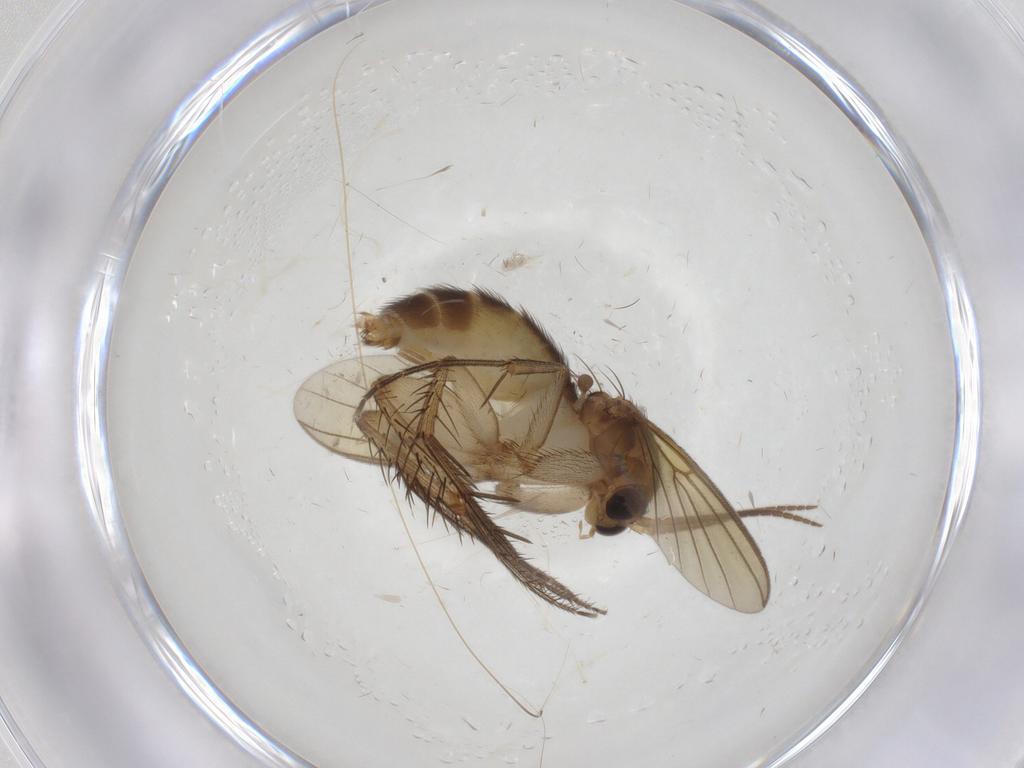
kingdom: Animalia
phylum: Arthropoda
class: Insecta
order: Diptera
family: Mycetophilidae
